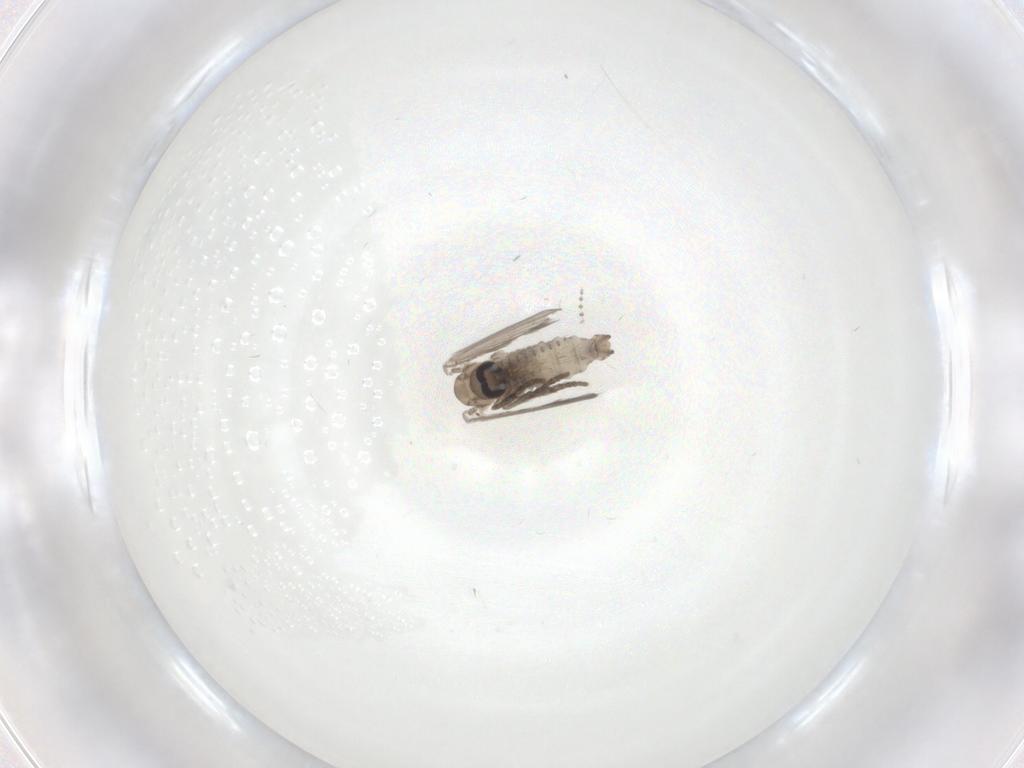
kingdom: Animalia
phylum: Arthropoda
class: Insecta
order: Diptera
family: Psychodidae
